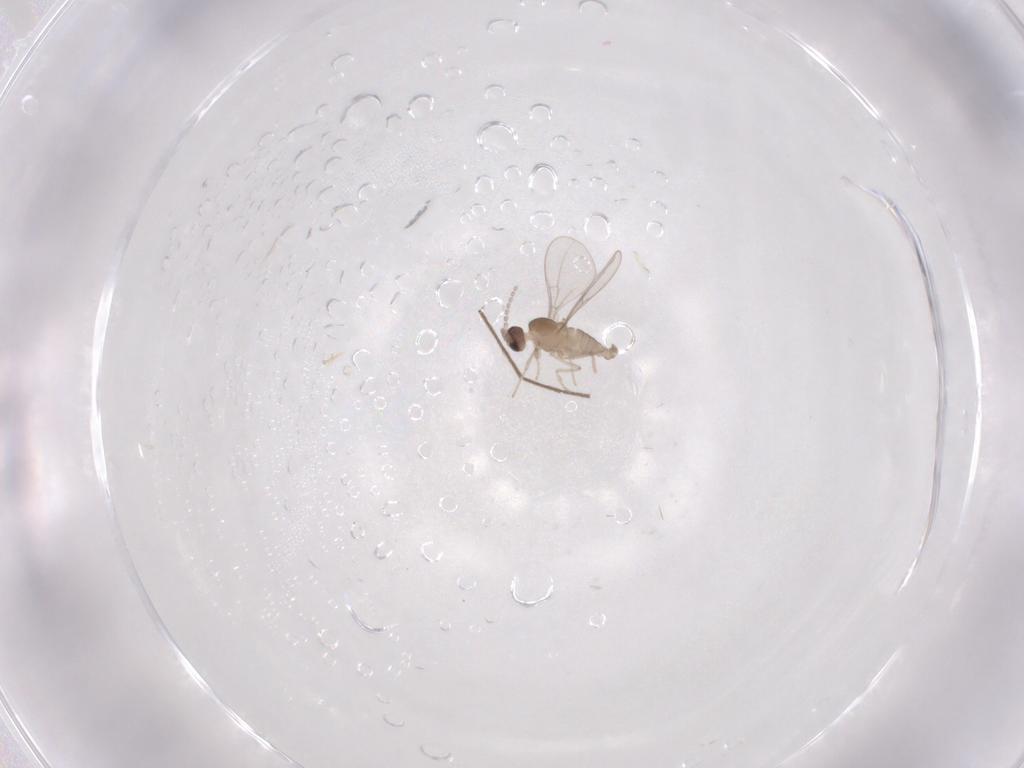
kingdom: Animalia
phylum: Arthropoda
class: Insecta
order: Diptera
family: Cecidomyiidae
